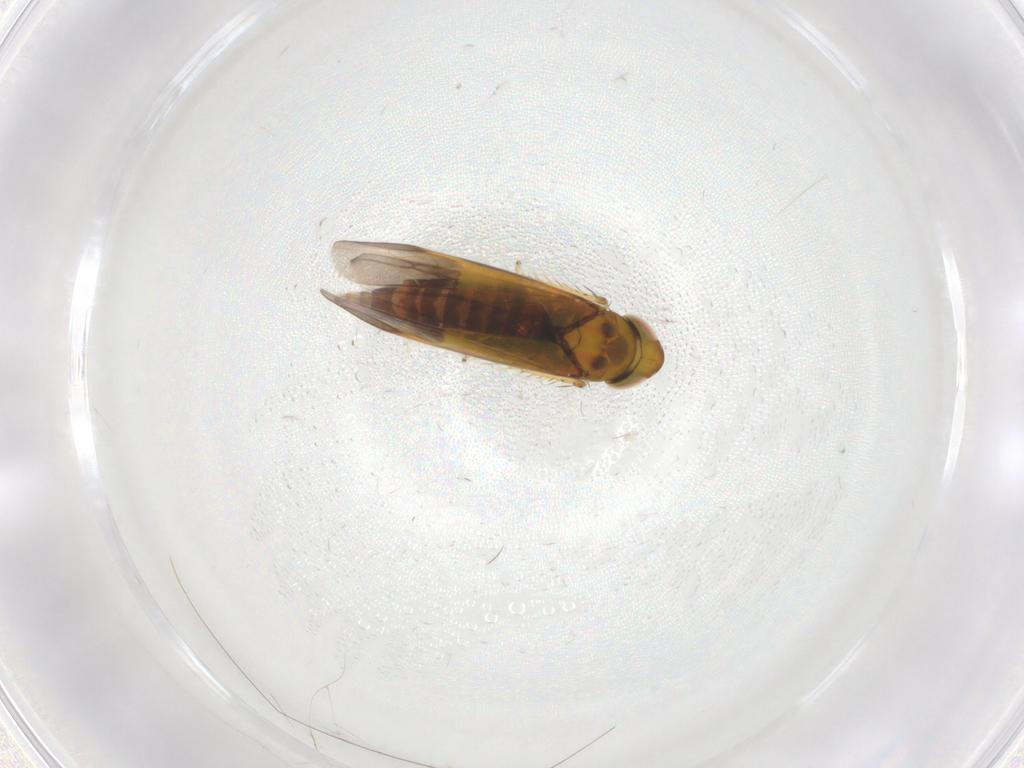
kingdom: Animalia
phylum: Arthropoda
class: Insecta
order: Hemiptera
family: Cicadellidae
